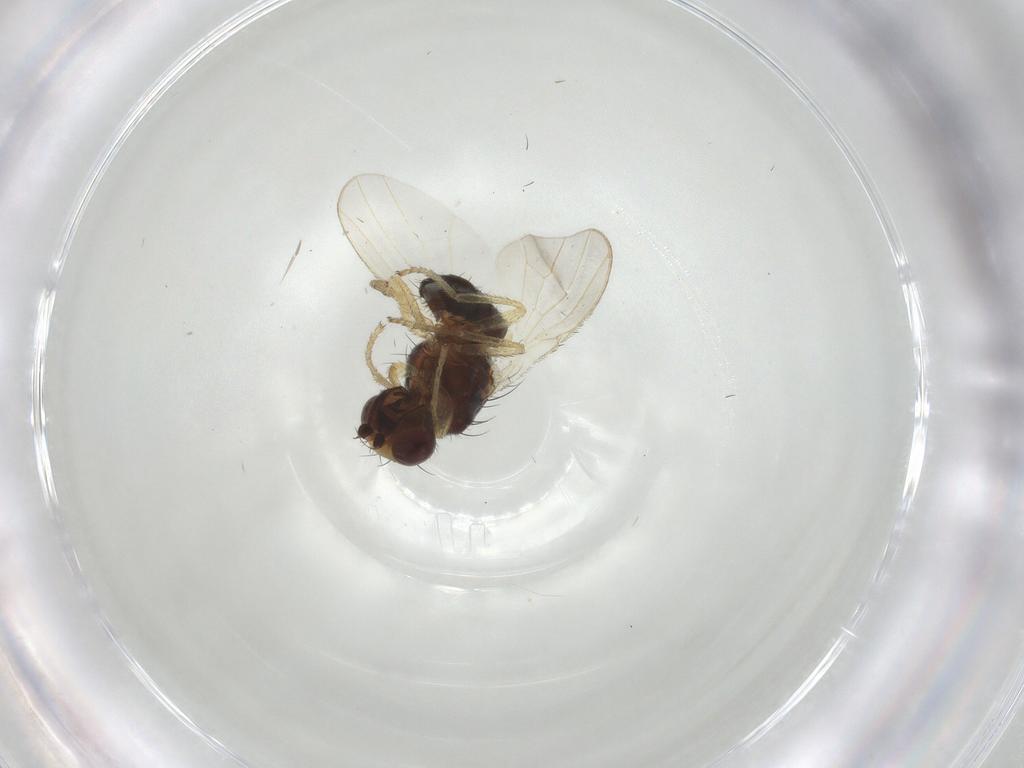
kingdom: Animalia
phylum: Arthropoda
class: Insecta
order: Diptera
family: Heleomyzidae
